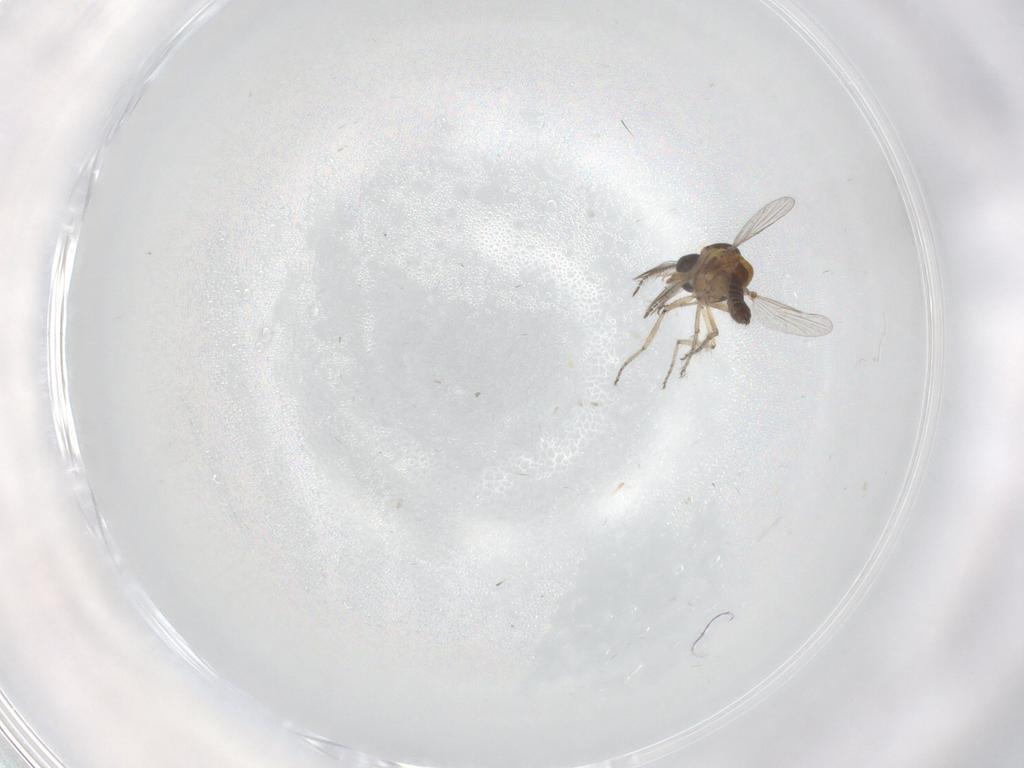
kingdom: Animalia
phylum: Arthropoda
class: Insecta
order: Diptera
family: Ceratopogonidae
